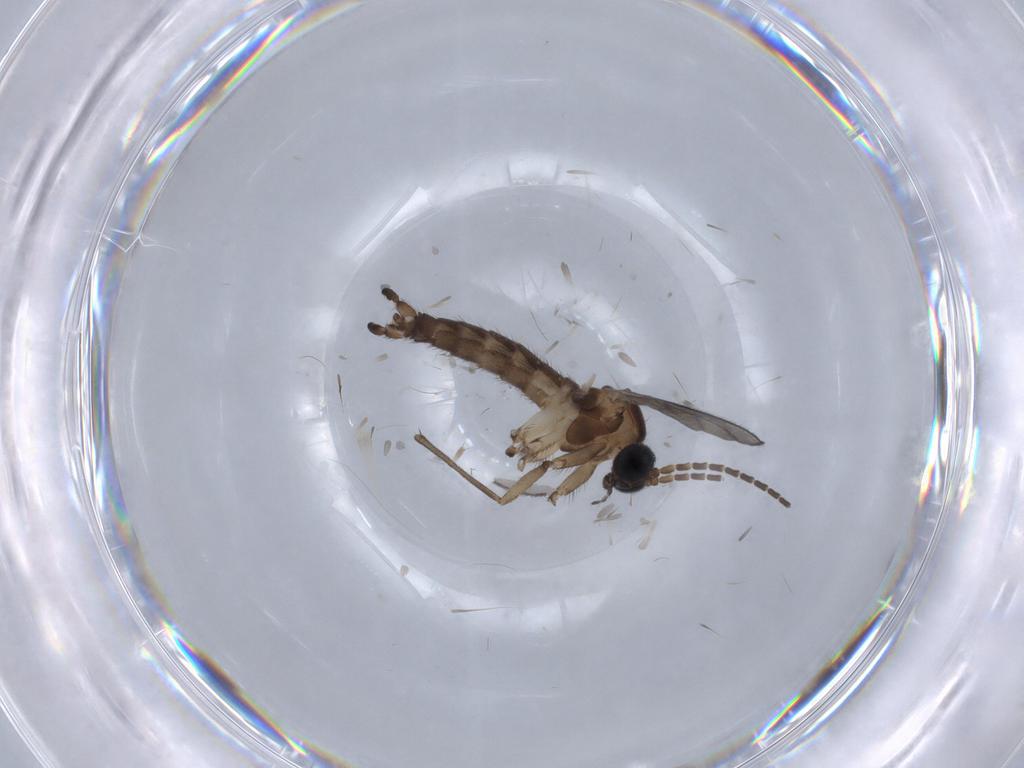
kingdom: Animalia
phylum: Arthropoda
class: Insecta
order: Diptera
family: Sciaridae
